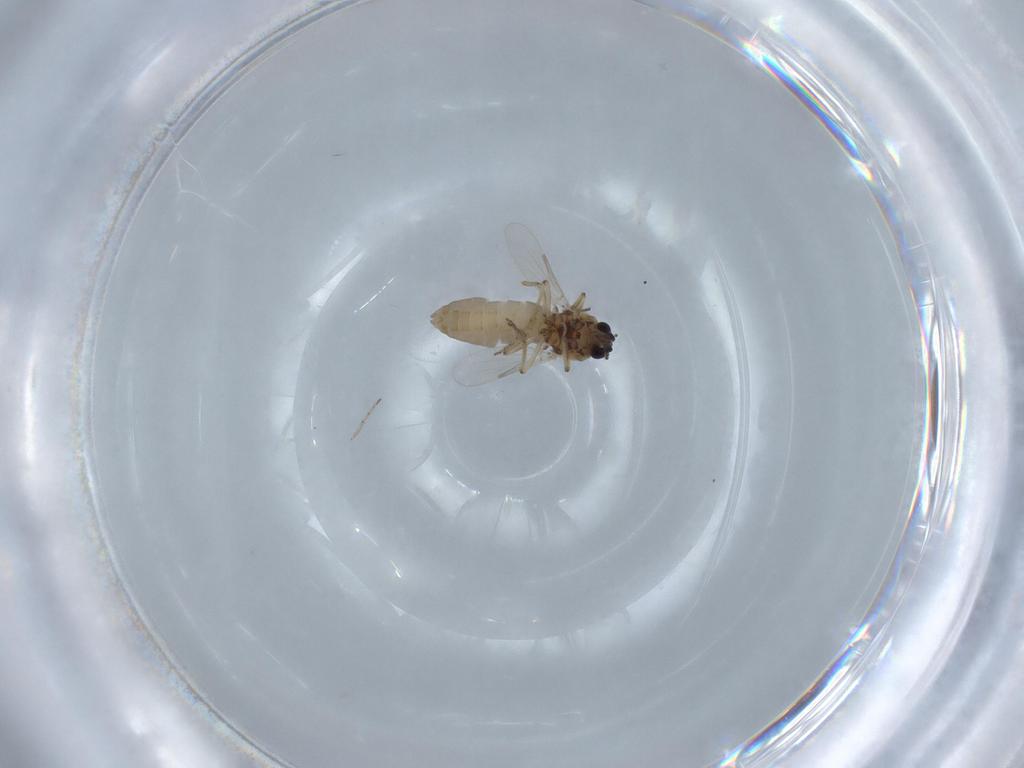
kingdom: Animalia
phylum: Arthropoda
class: Insecta
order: Diptera
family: Ceratopogonidae
